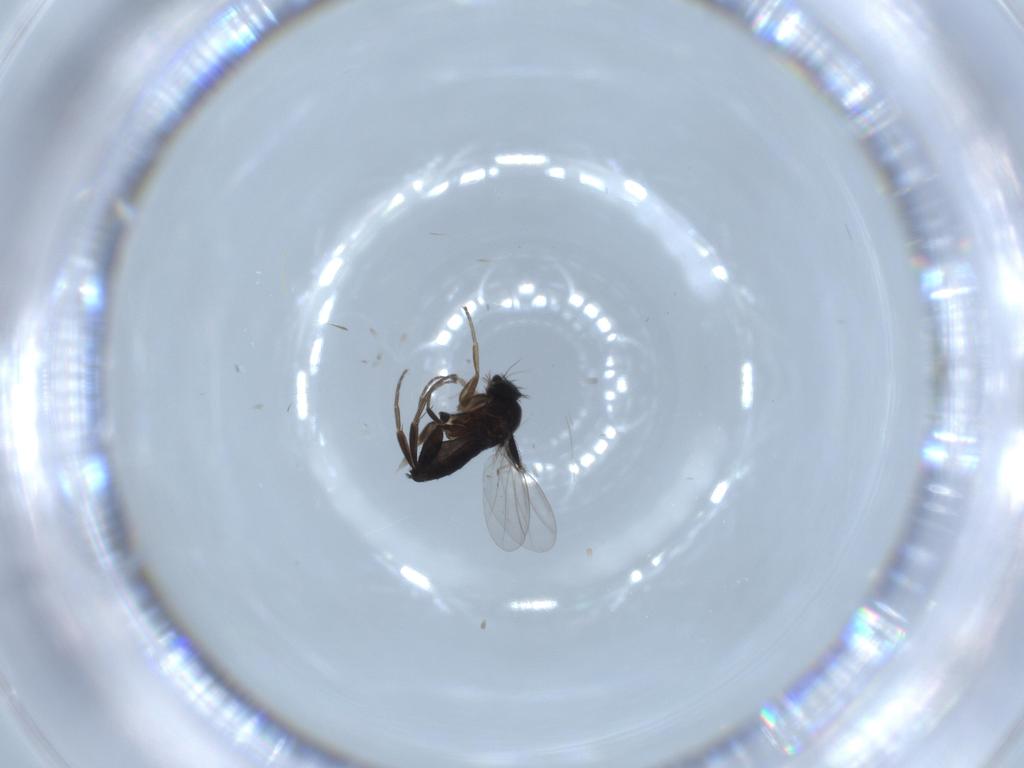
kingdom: Animalia
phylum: Arthropoda
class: Insecta
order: Diptera
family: Phoridae
